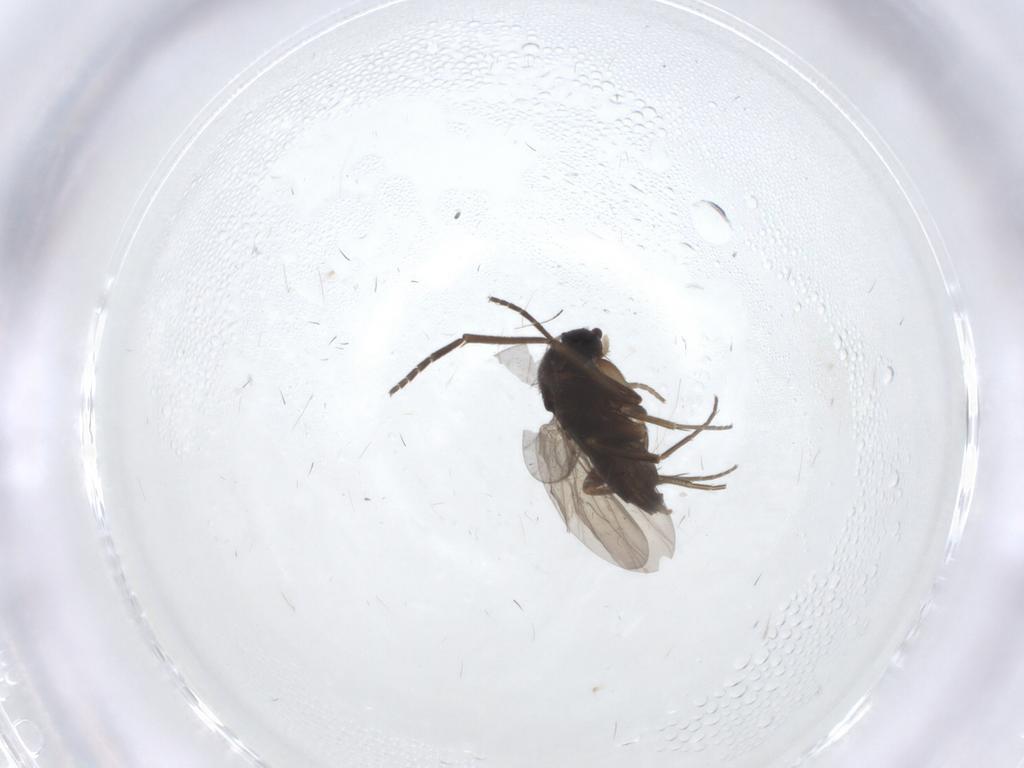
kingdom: Animalia
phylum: Arthropoda
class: Insecta
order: Diptera
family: Phoridae
